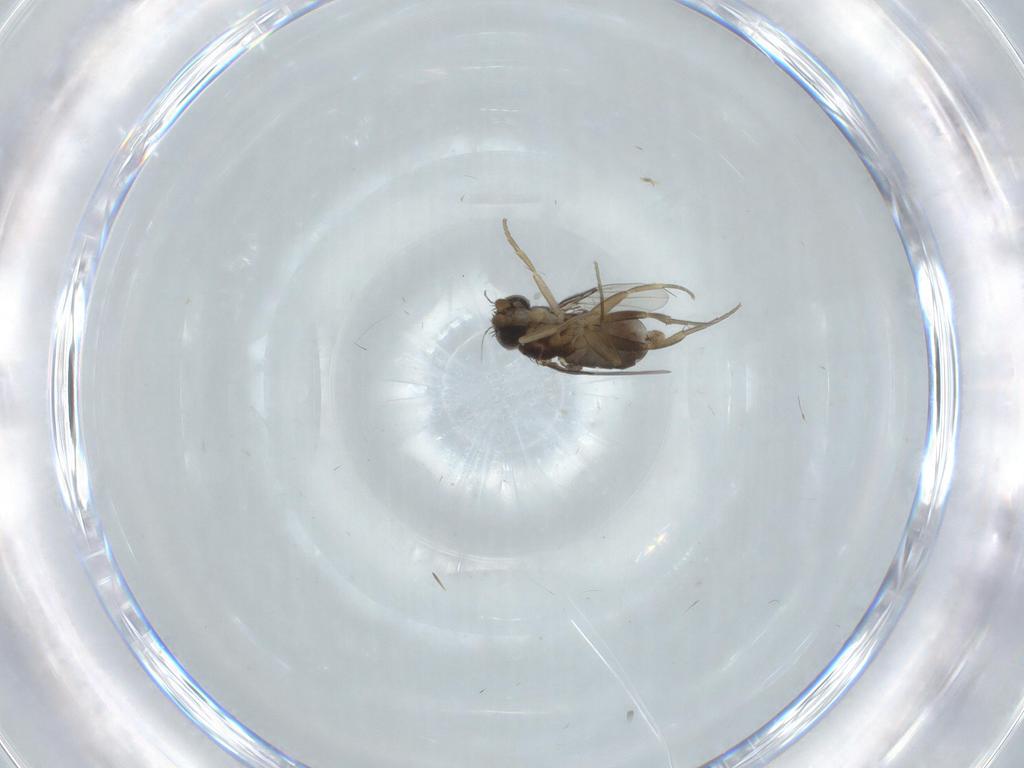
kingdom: Animalia
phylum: Arthropoda
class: Insecta
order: Diptera
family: Phoridae
